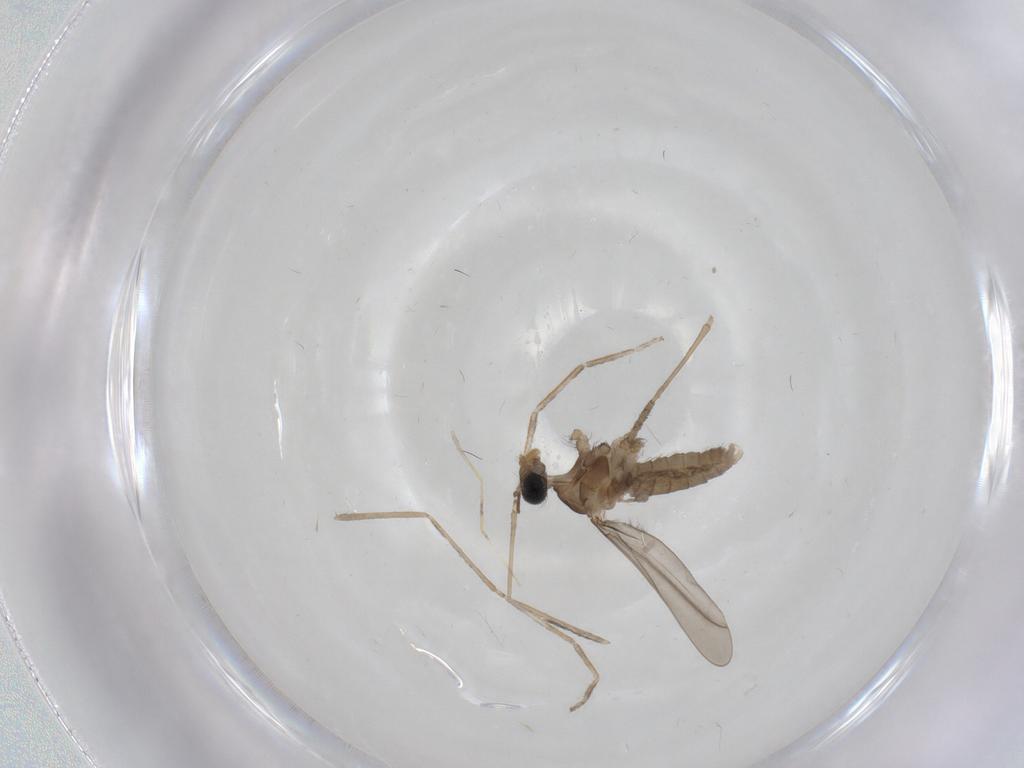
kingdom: Animalia
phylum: Arthropoda
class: Insecta
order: Diptera
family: Cecidomyiidae
